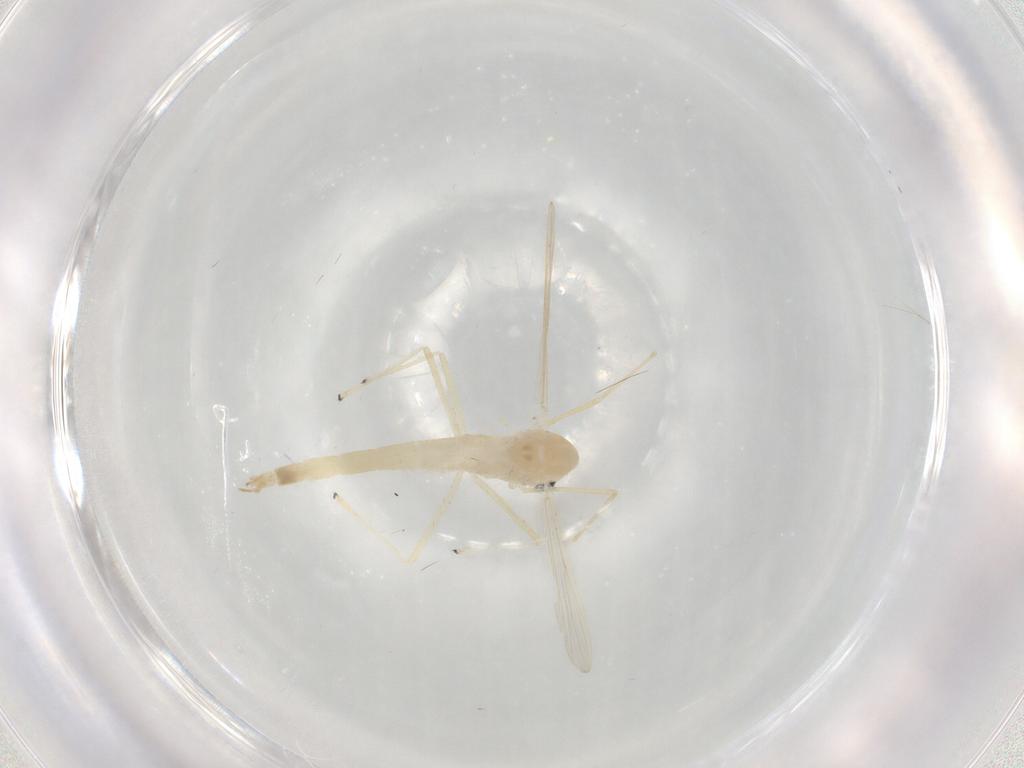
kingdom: Animalia
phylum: Arthropoda
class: Insecta
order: Diptera
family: Chironomidae
